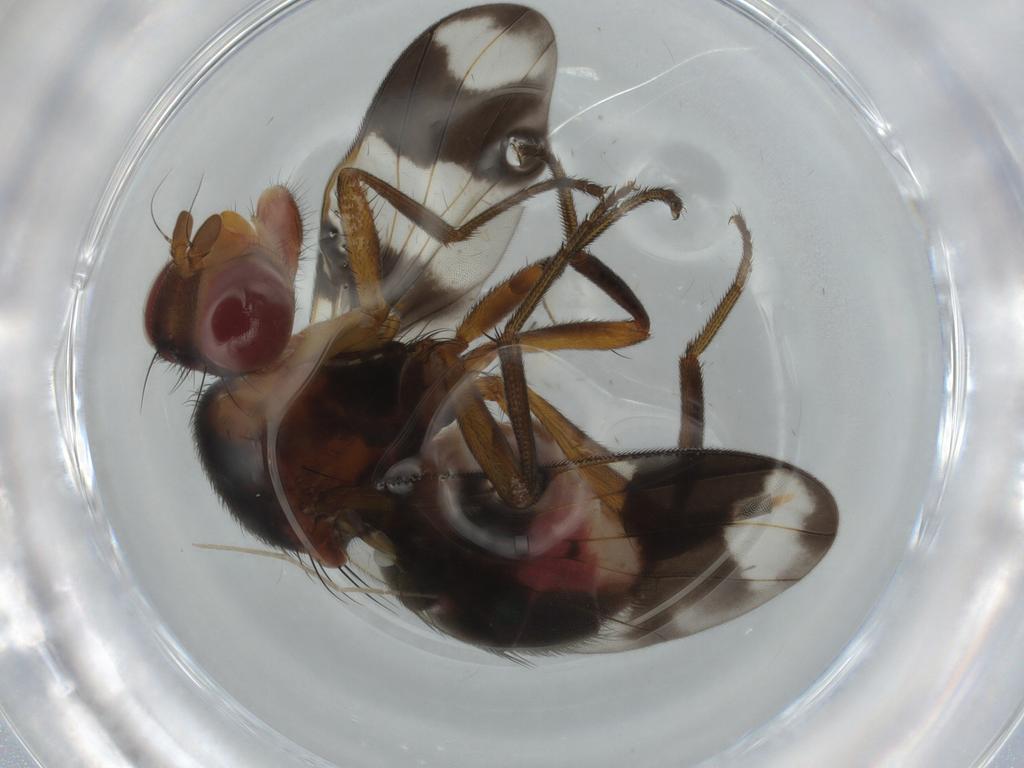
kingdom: Animalia
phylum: Arthropoda
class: Insecta
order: Diptera
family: Richardiidae
